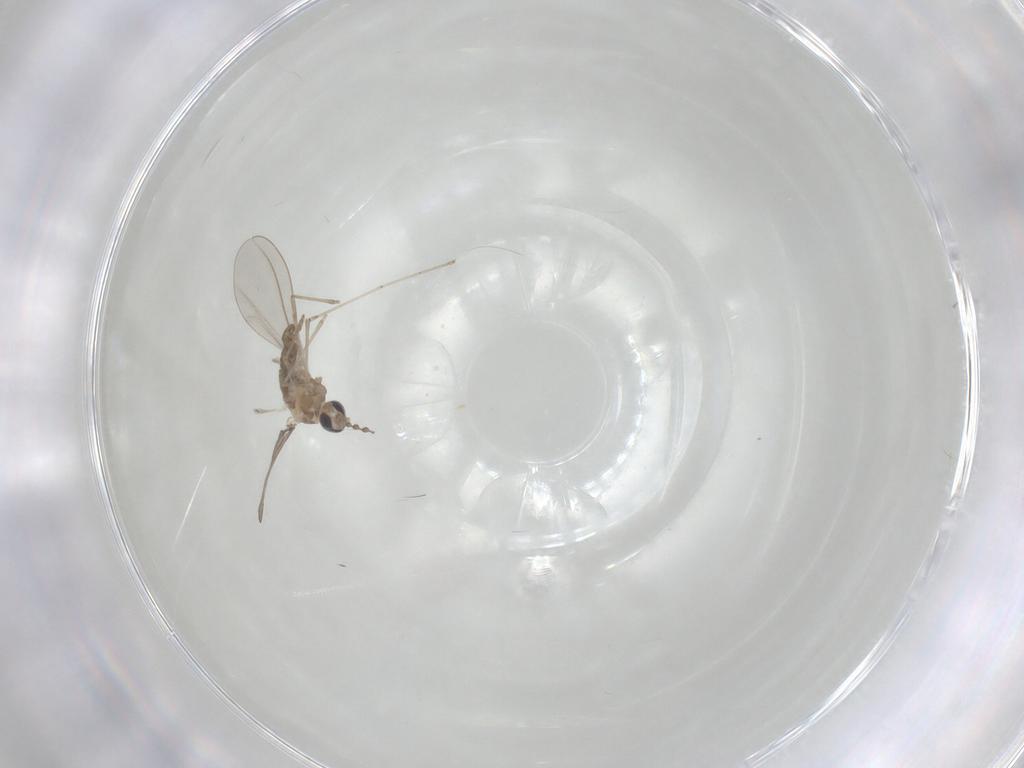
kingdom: Animalia
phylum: Arthropoda
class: Insecta
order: Diptera
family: Cecidomyiidae
